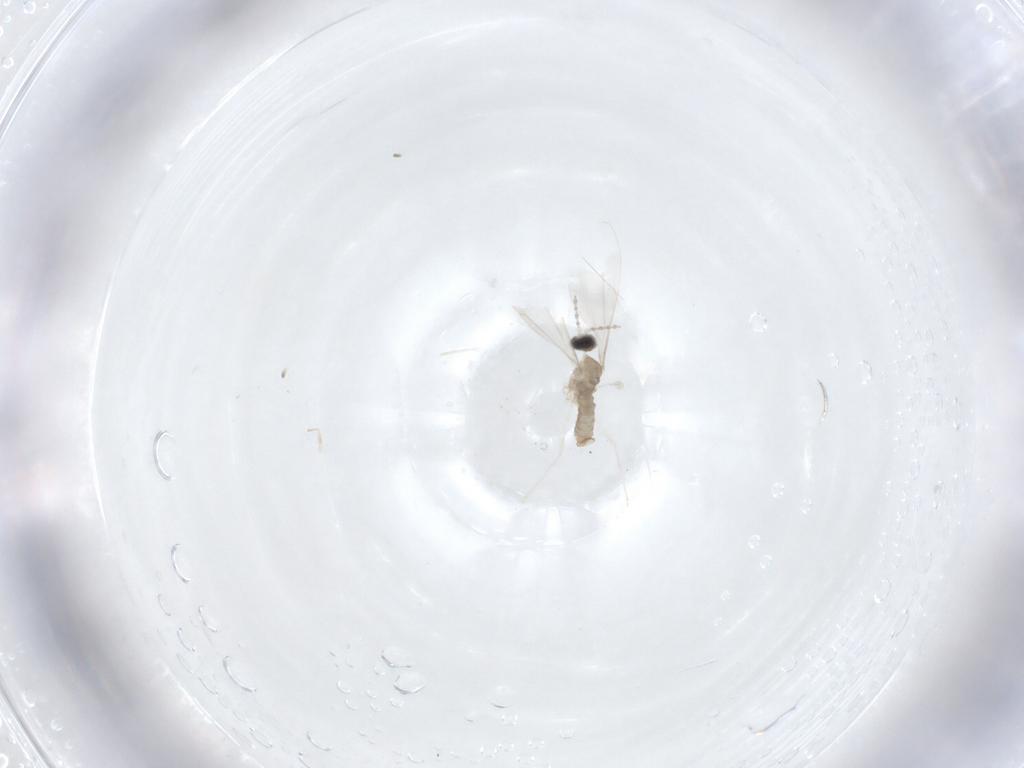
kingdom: Animalia
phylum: Arthropoda
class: Insecta
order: Diptera
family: Cecidomyiidae
